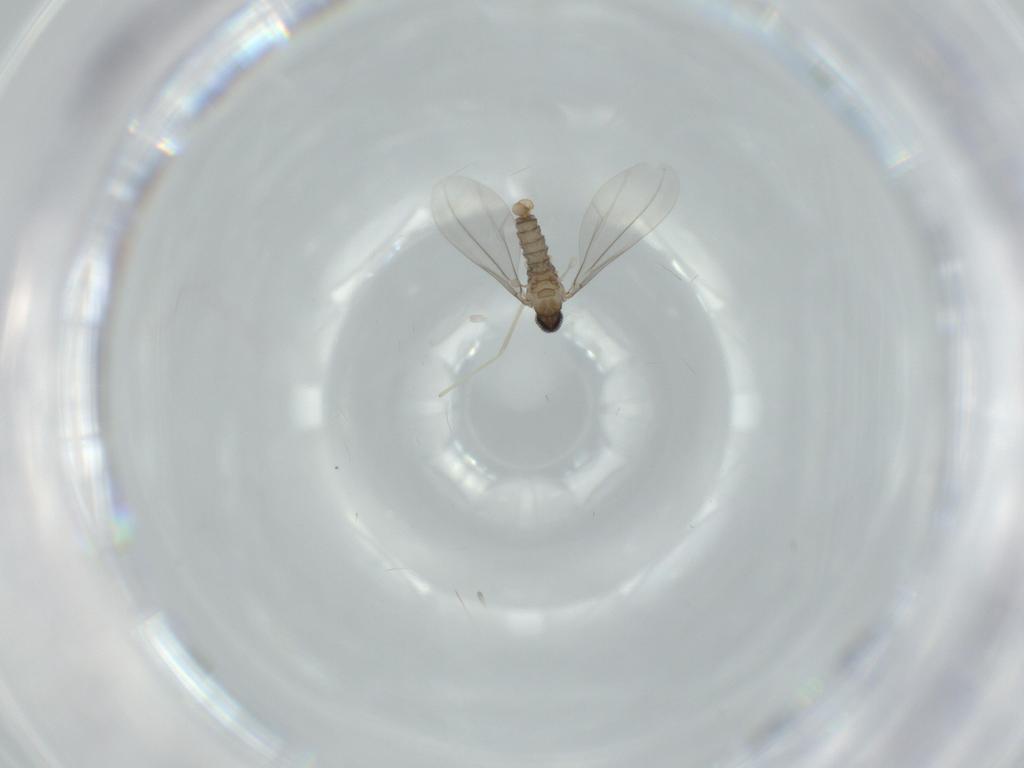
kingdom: Animalia
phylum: Arthropoda
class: Insecta
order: Diptera
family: Cecidomyiidae
